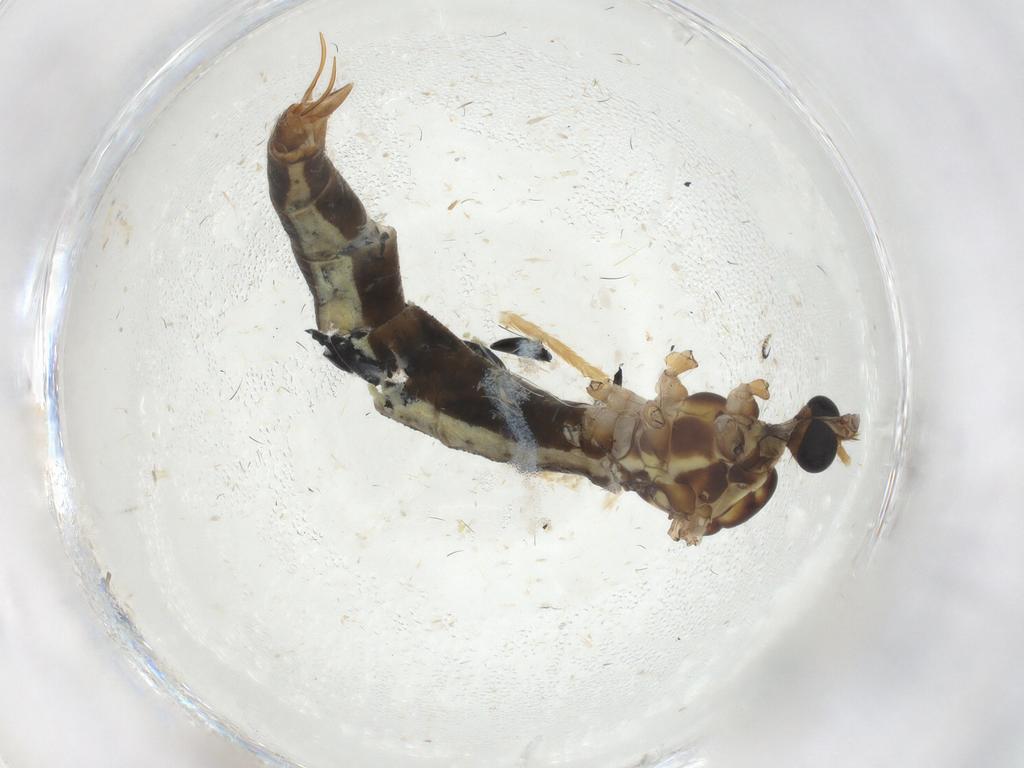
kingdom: Animalia
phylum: Arthropoda
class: Insecta
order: Diptera
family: Limoniidae
